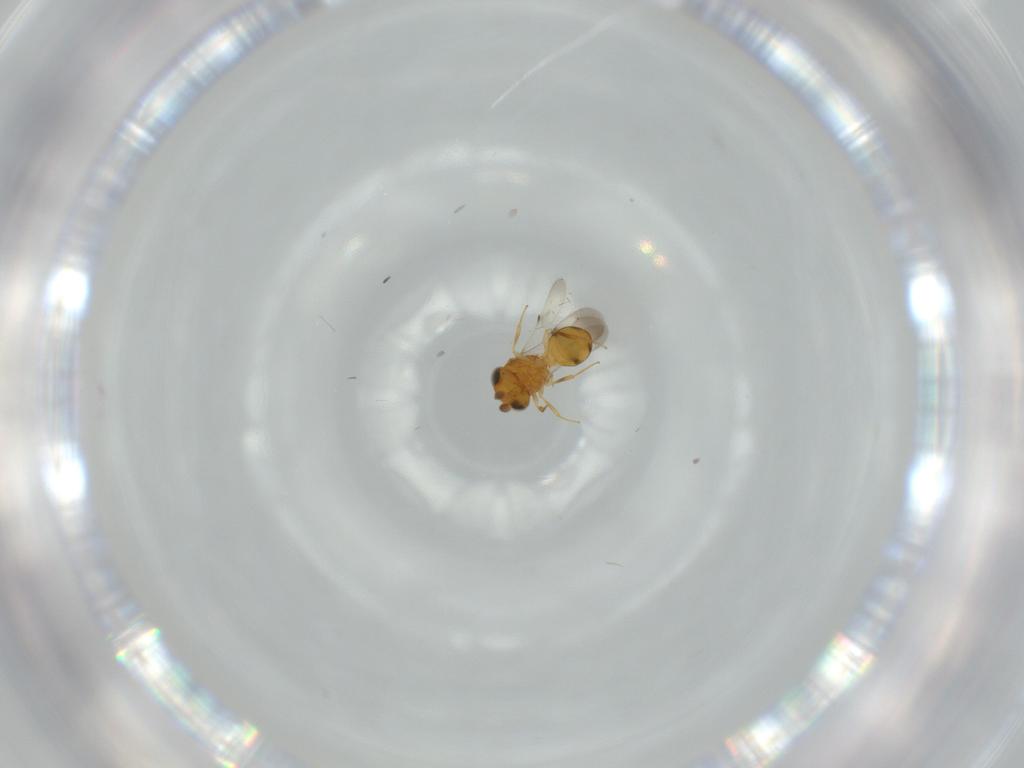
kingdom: Animalia
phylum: Arthropoda
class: Insecta
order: Hymenoptera
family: Scelionidae
